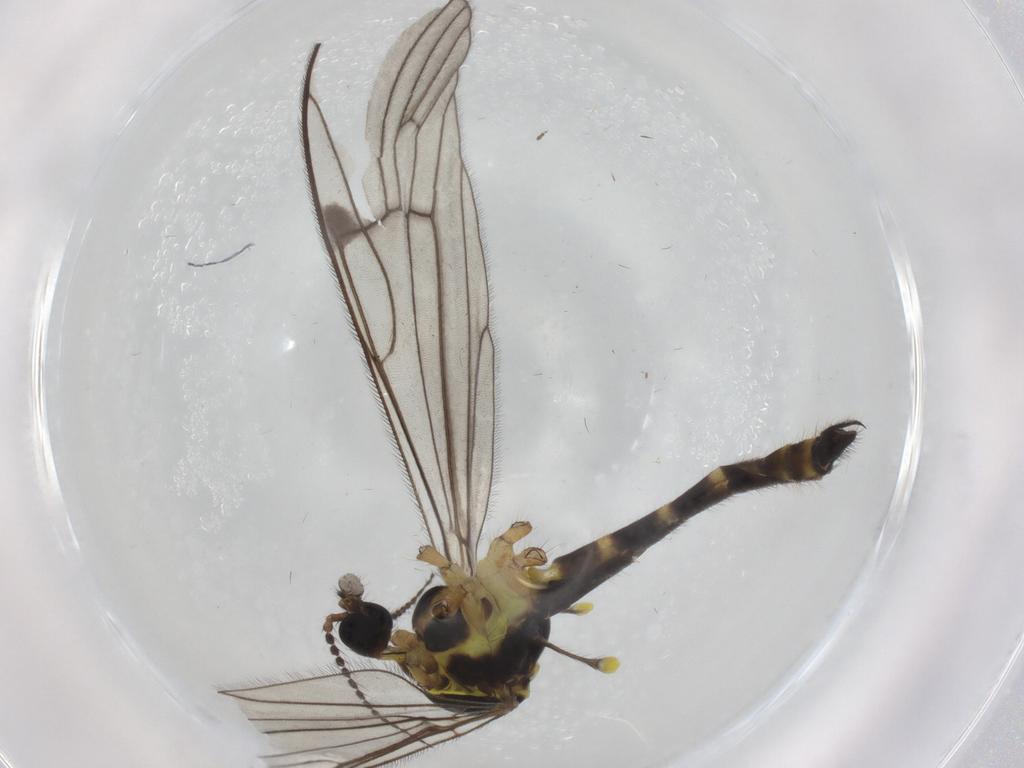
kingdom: Animalia
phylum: Arthropoda
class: Insecta
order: Diptera
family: Limoniidae
